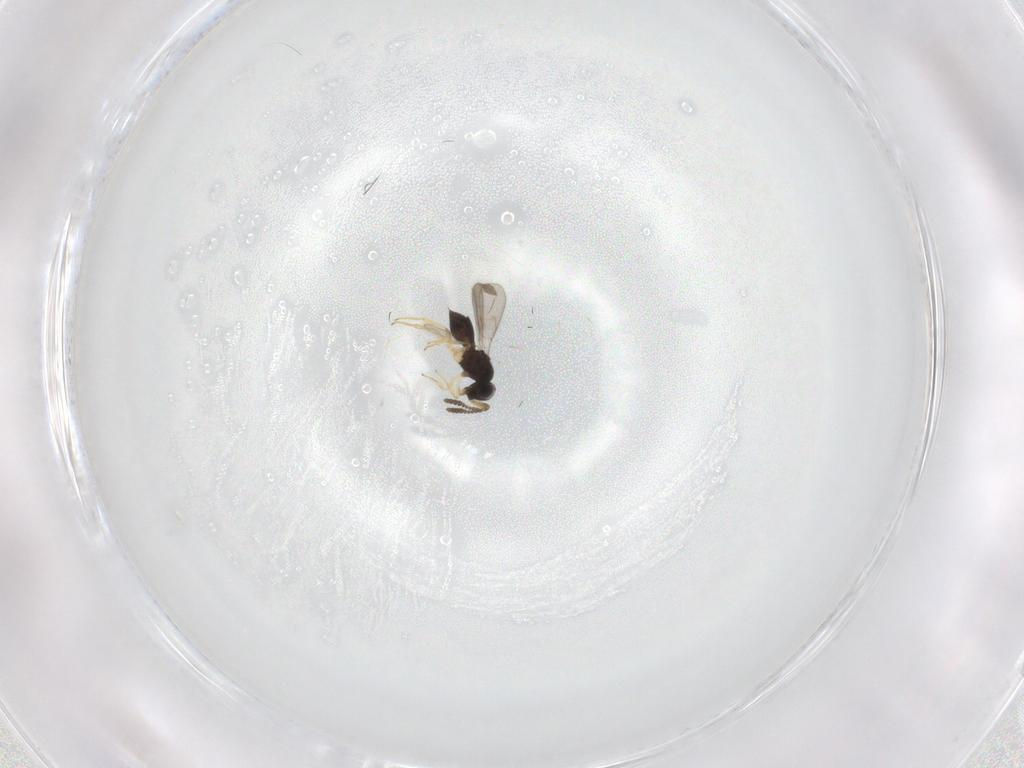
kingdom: Animalia
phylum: Arthropoda
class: Insecta
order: Hymenoptera
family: Scelionidae
